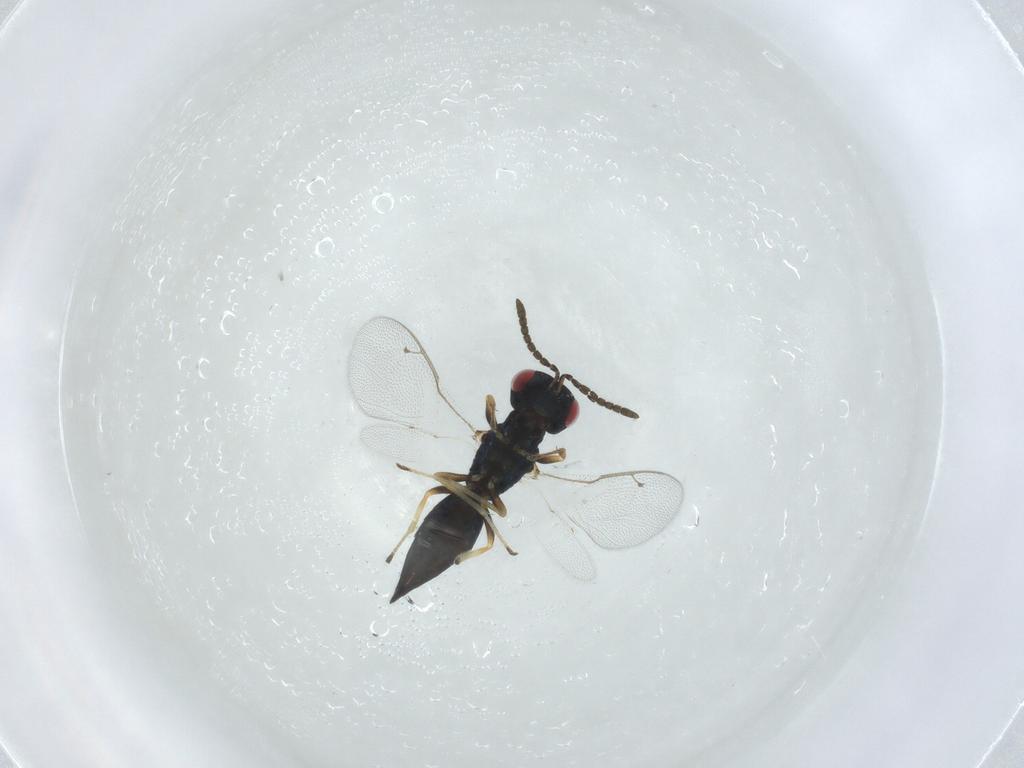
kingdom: Animalia
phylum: Arthropoda
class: Insecta
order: Hymenoptera
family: Pteromalidae
